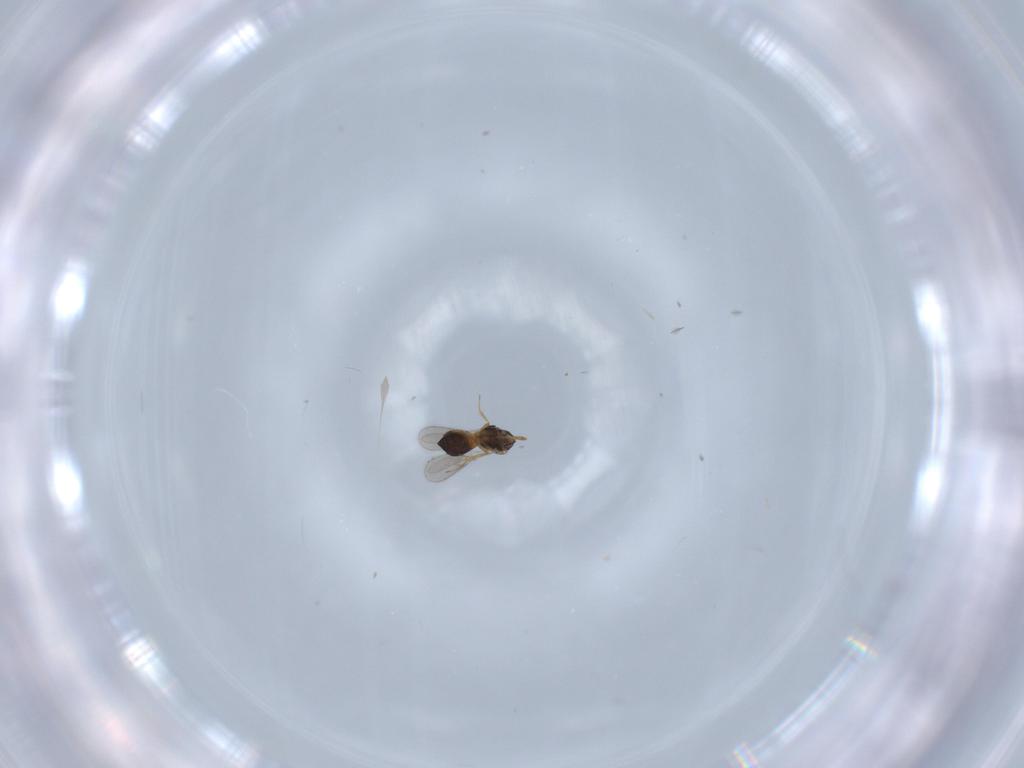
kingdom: Animalia
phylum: Arthropoda
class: Insecta
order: Hymenoptera
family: Scelionidae
